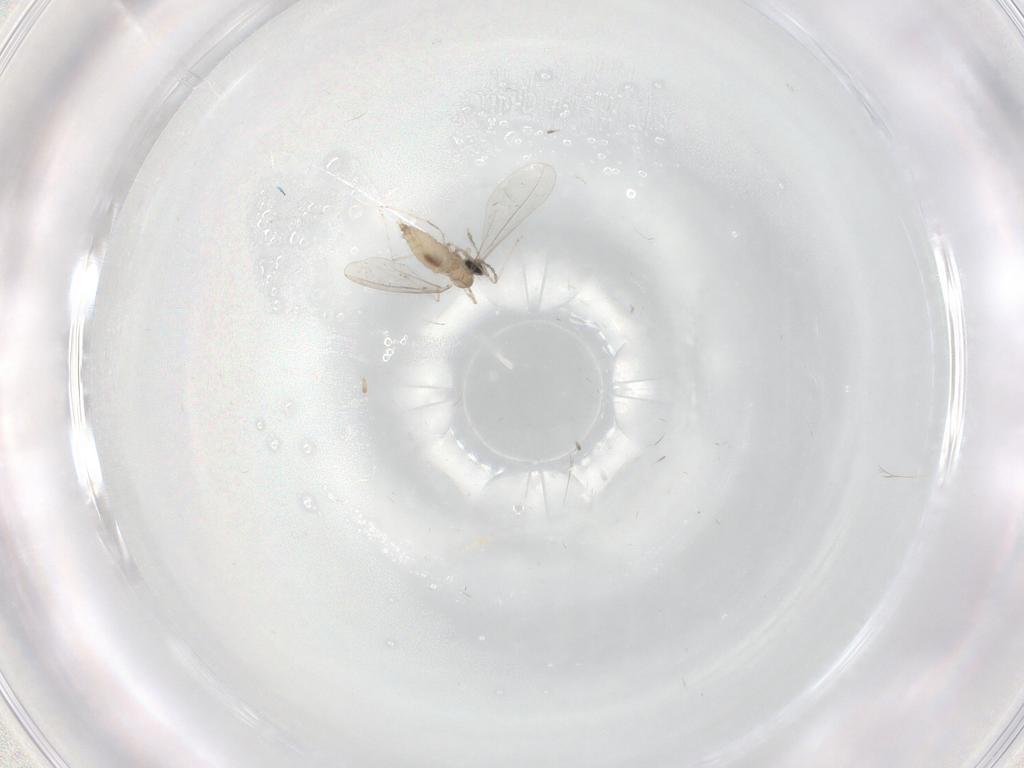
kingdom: Animalia
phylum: Arthropoda
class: Insecta
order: Diptera
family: Cecidomyiidae
